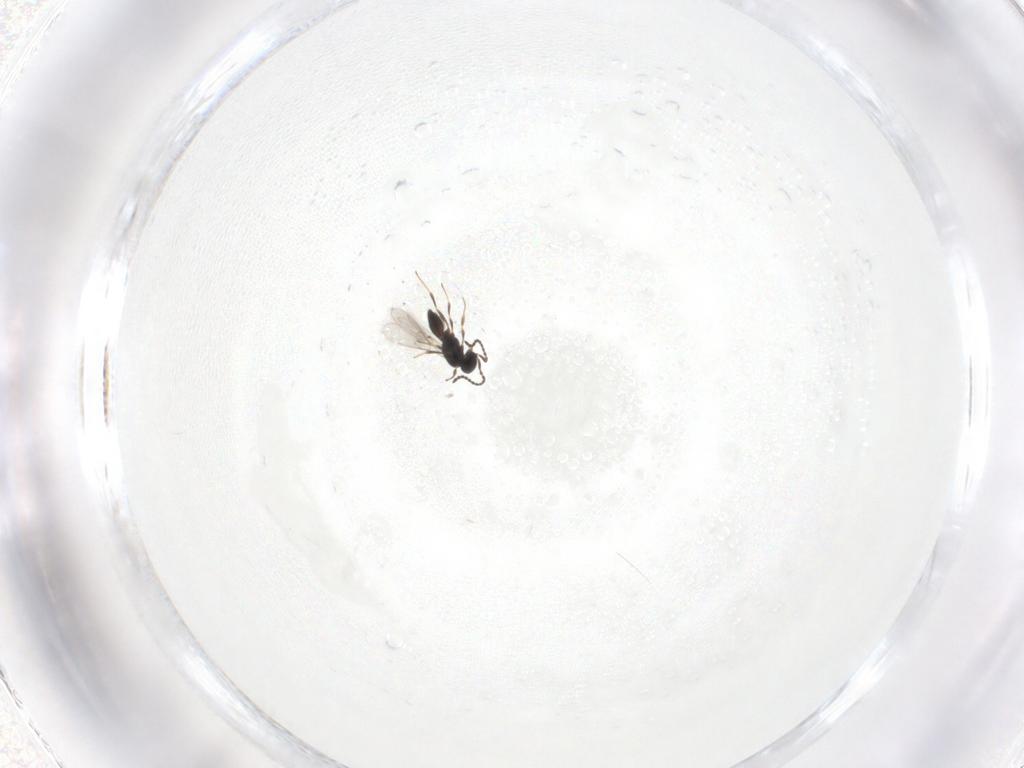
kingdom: Animalia
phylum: Arthropoda
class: Insecta
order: Hymenoptera
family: Scelionidae
